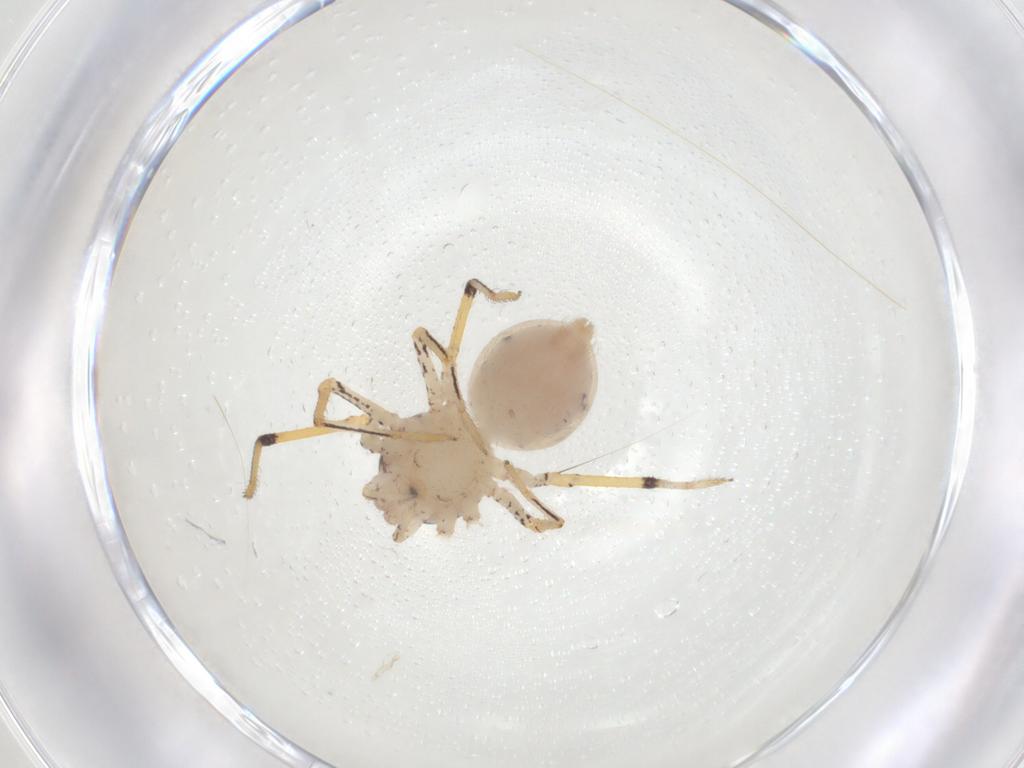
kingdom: Animalia
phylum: Arthropoda
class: Arachnida
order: Araneae
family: Scytodidae
